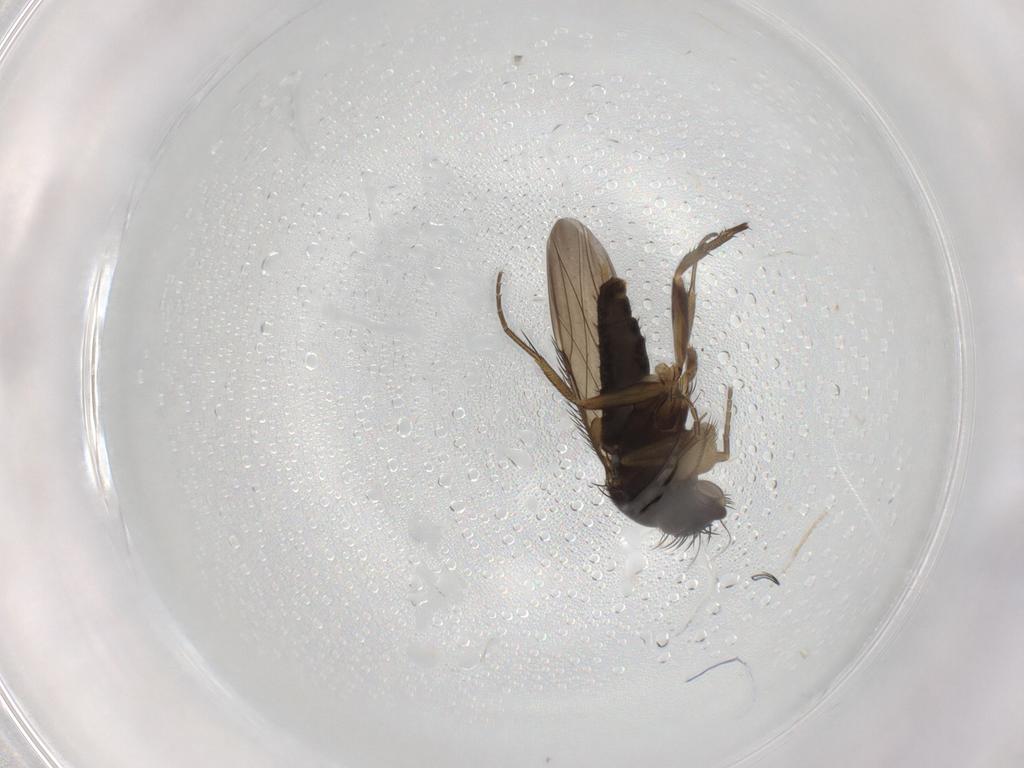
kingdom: Animalia
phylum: Arthropoda
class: Insecta
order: Diptera
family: Phoridae
